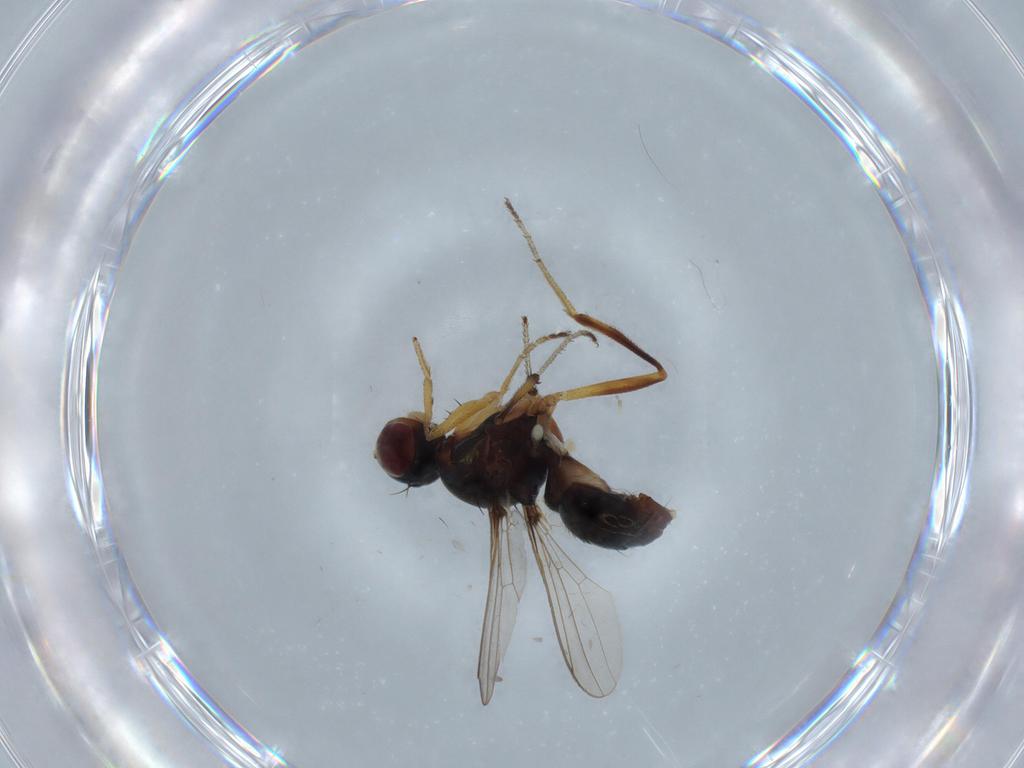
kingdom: Animalia
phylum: Arthropoda
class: Insecta
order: Diptera
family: Sepsidae
